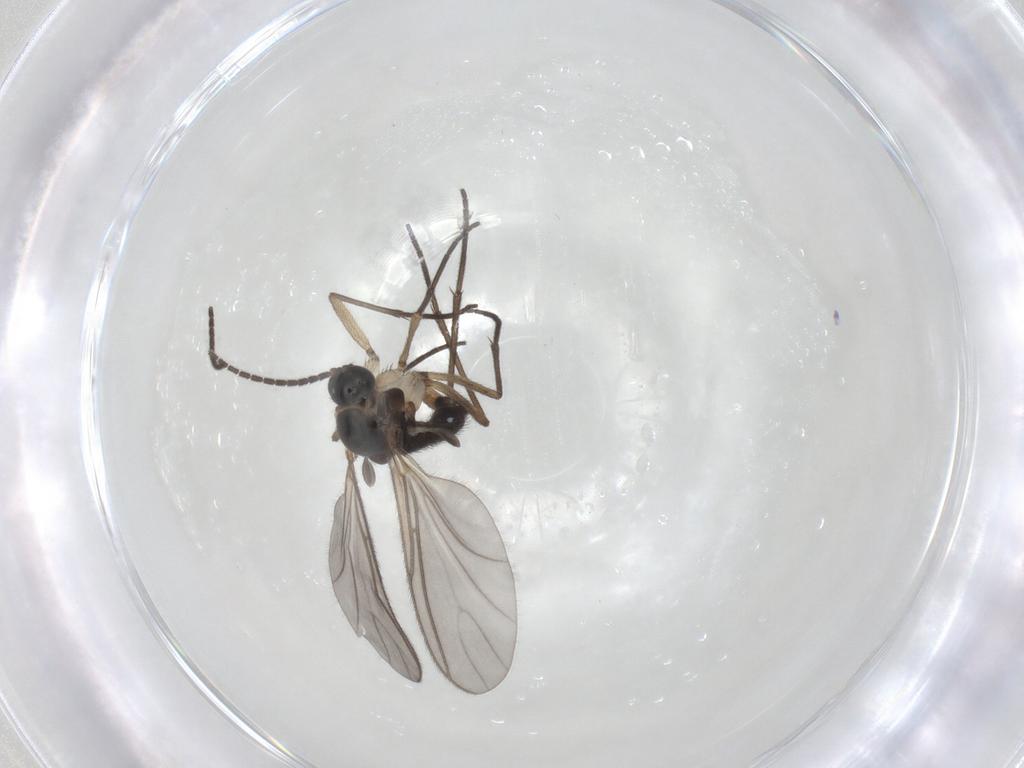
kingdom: Animalia
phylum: Arthropoda
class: Insecta
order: Diptera
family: Sciaridae
